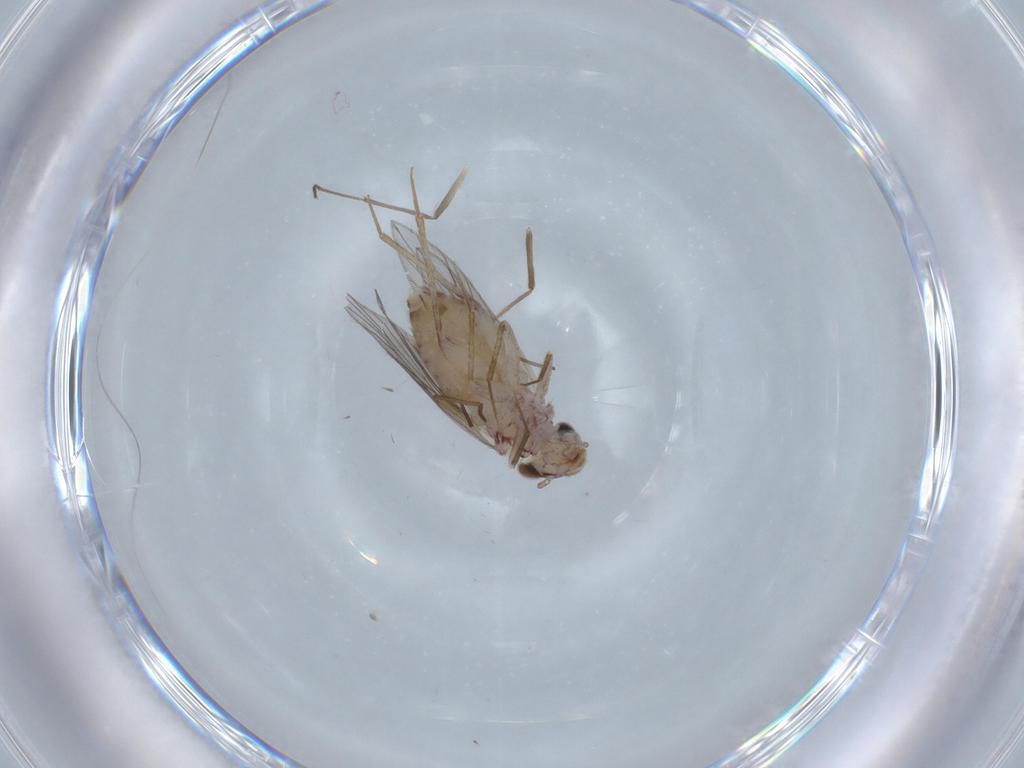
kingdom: Animalia
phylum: Arthropoda
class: Insecta
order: Psocodea
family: Lepidopsocidae
